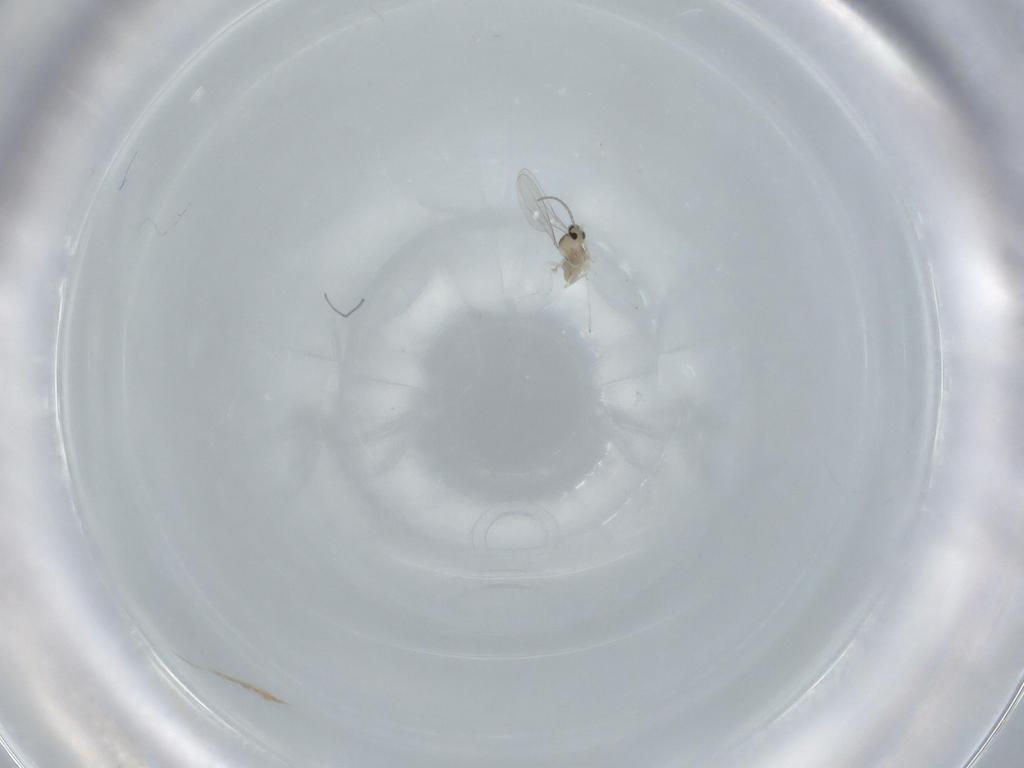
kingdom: Animalia
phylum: Arthropoda
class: Insecta
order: Diptera
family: Cecidomyiidae
